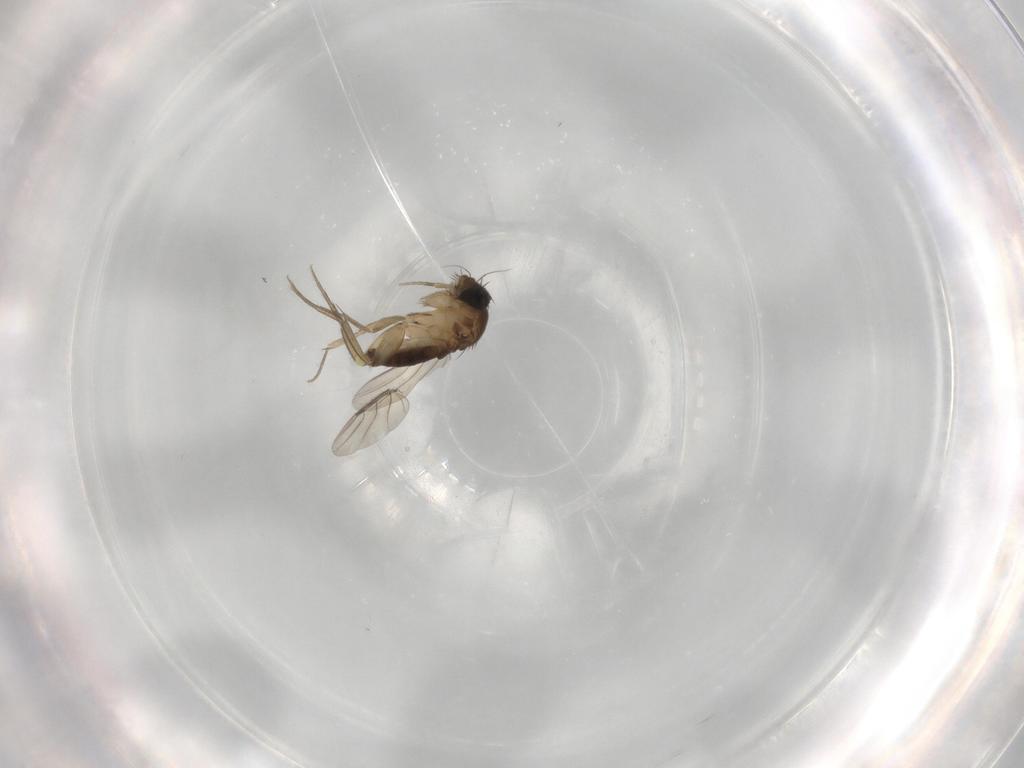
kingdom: Animalia
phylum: Arthropoda
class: Insecta
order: Diptera
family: Phoridae
